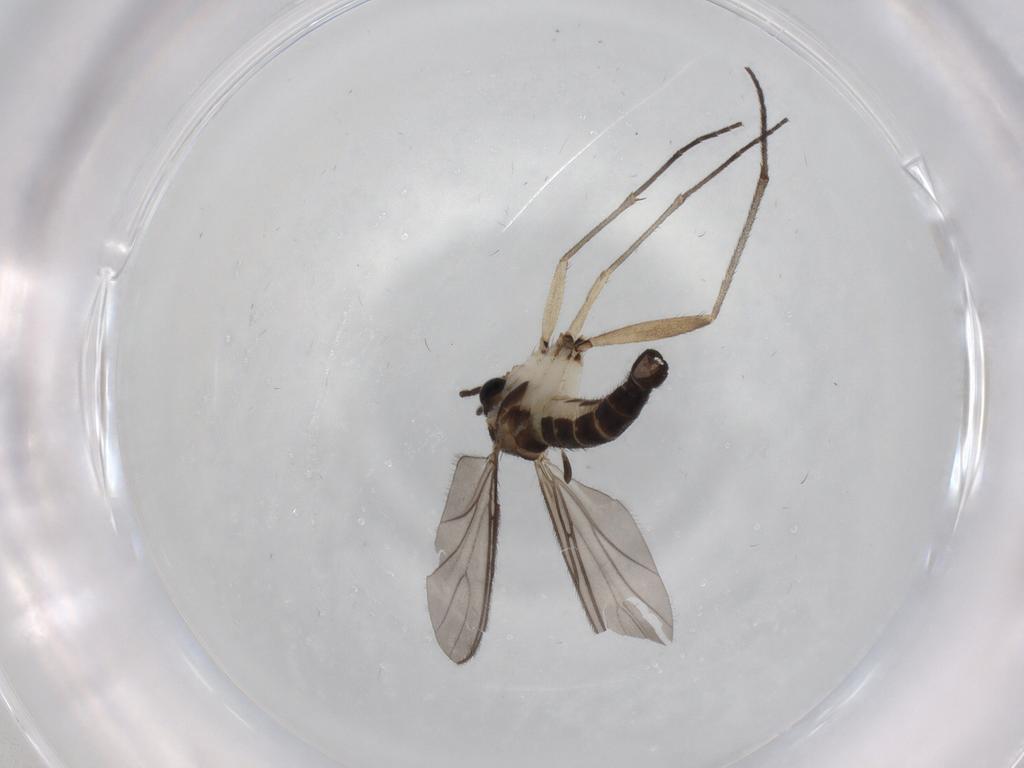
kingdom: Animalia
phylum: Arthropoda
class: Insecta
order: Diptera
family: Sciaridae
